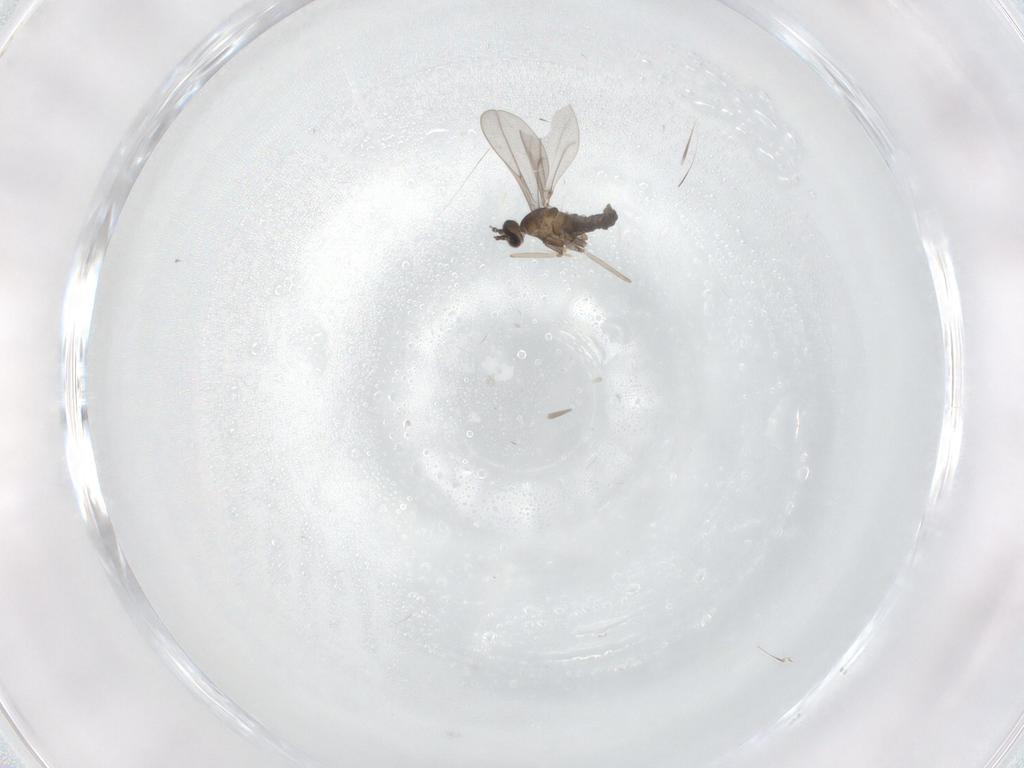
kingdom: Animalia
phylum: Arthropoda
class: Insecta
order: Diptera
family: Cecidomyiidae
